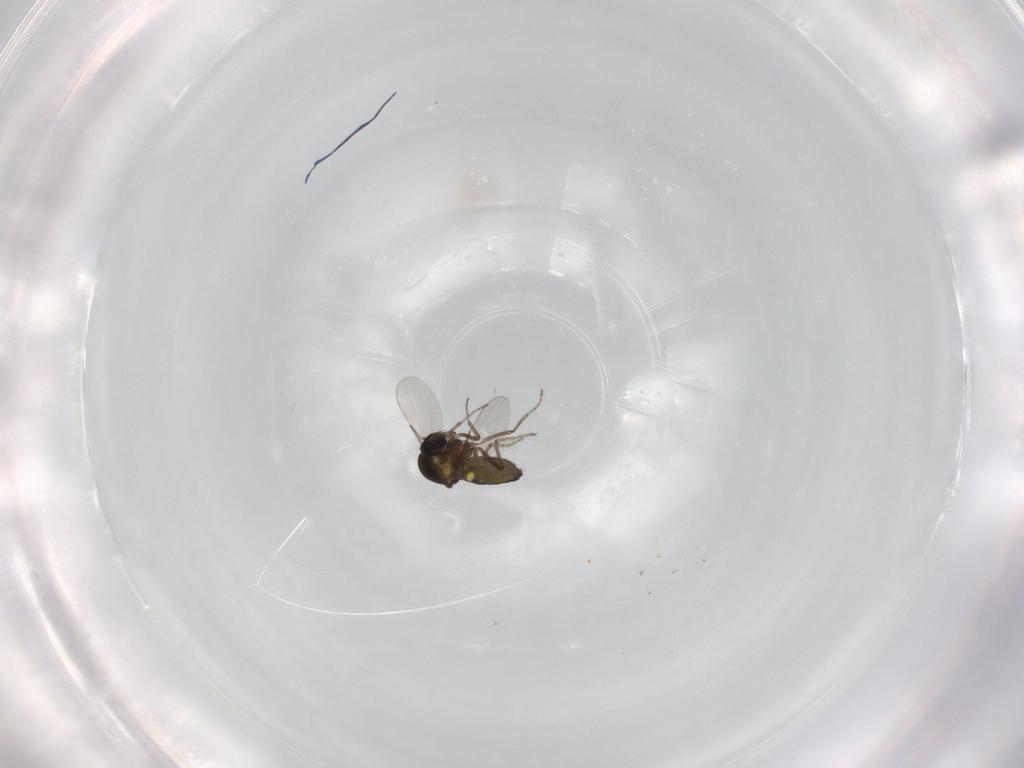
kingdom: Animalia
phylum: Arthropoda
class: Insecta
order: Diptera
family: Ceratopogonidae
